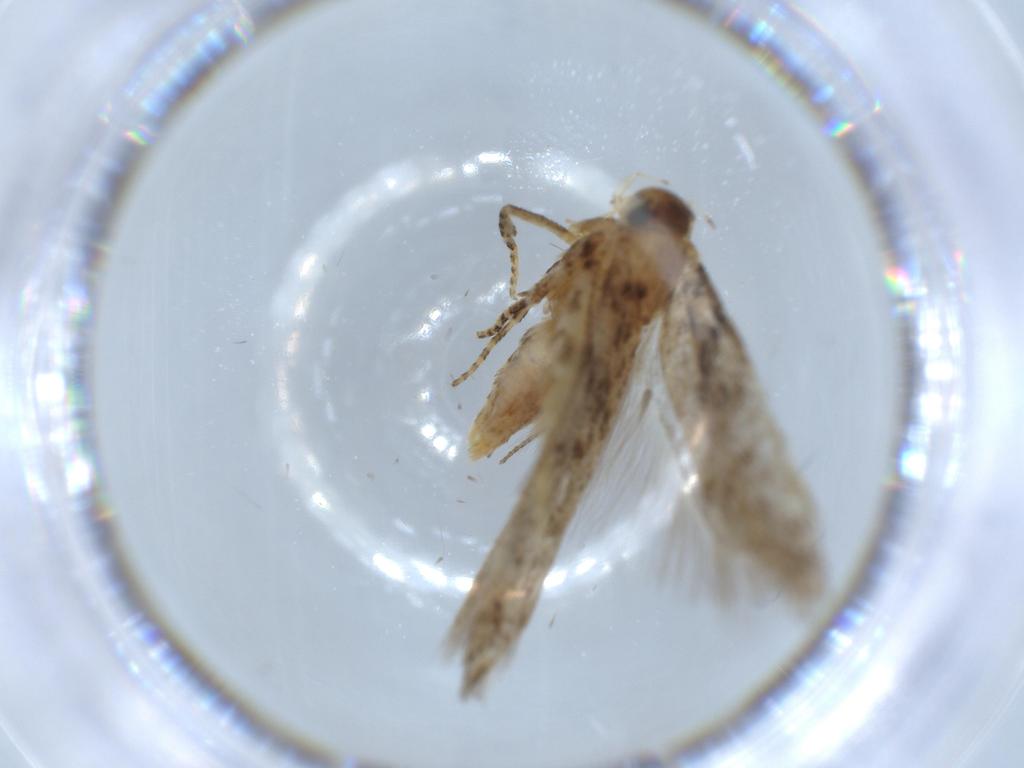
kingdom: Animalia
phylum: Arthropoda
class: Insecta
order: Lepidoptera
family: Gelechiidae
